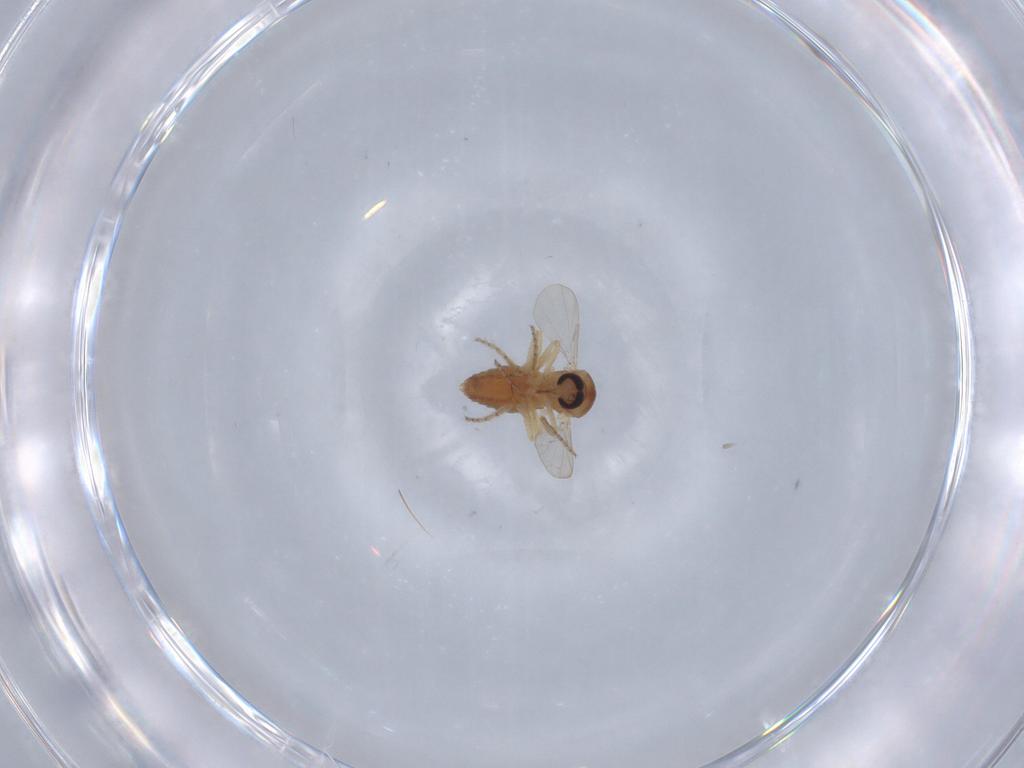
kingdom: Animalia
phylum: Arthropoda
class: Insecta
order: Diptera
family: Ceratopogonidae
